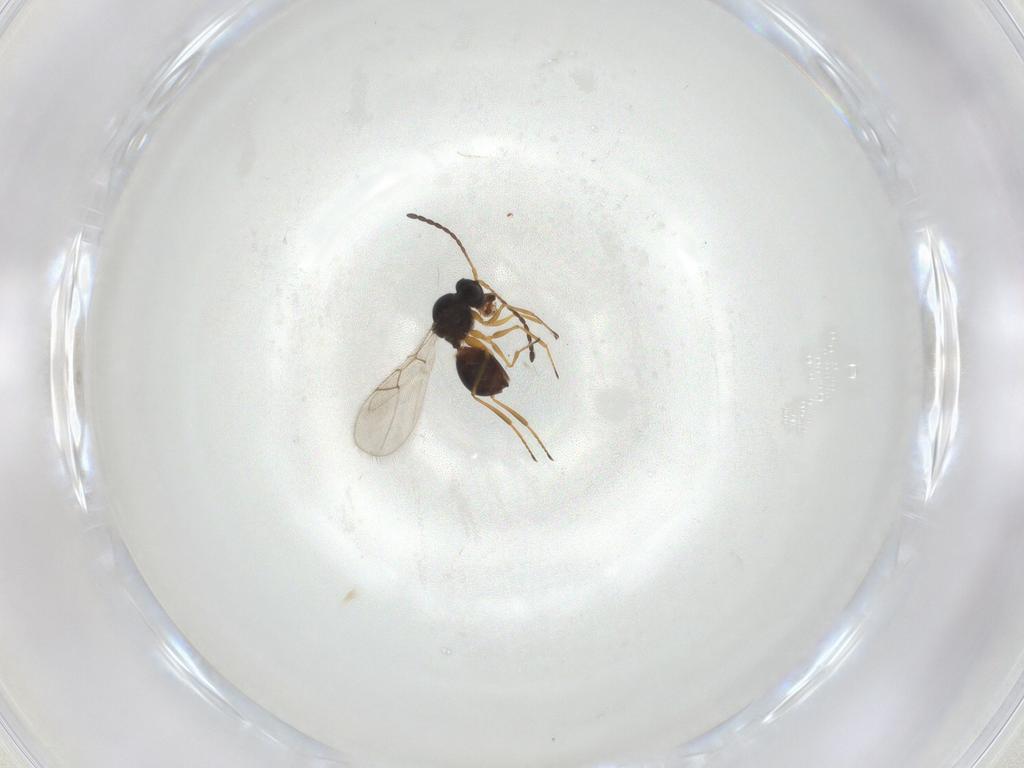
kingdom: Animalia
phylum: Arthropoda
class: Insecta
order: Hymenoptera
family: Figitidae
